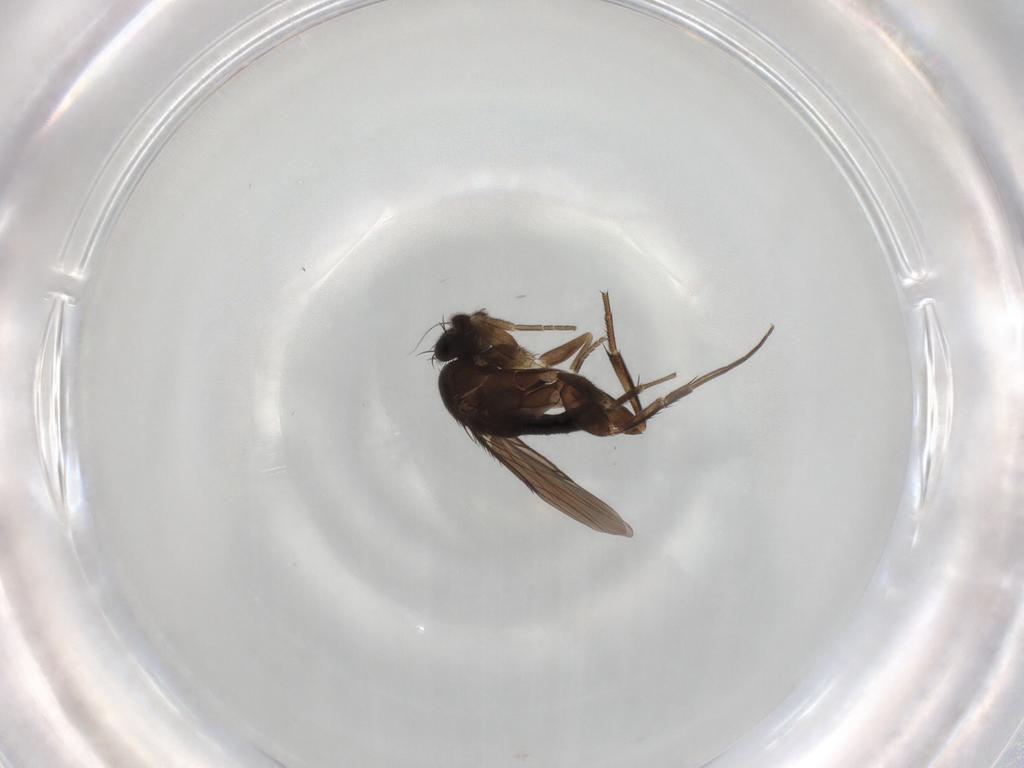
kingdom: Animalia
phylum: Arthropoda
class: Insecta
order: Diptera
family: Phoridae
